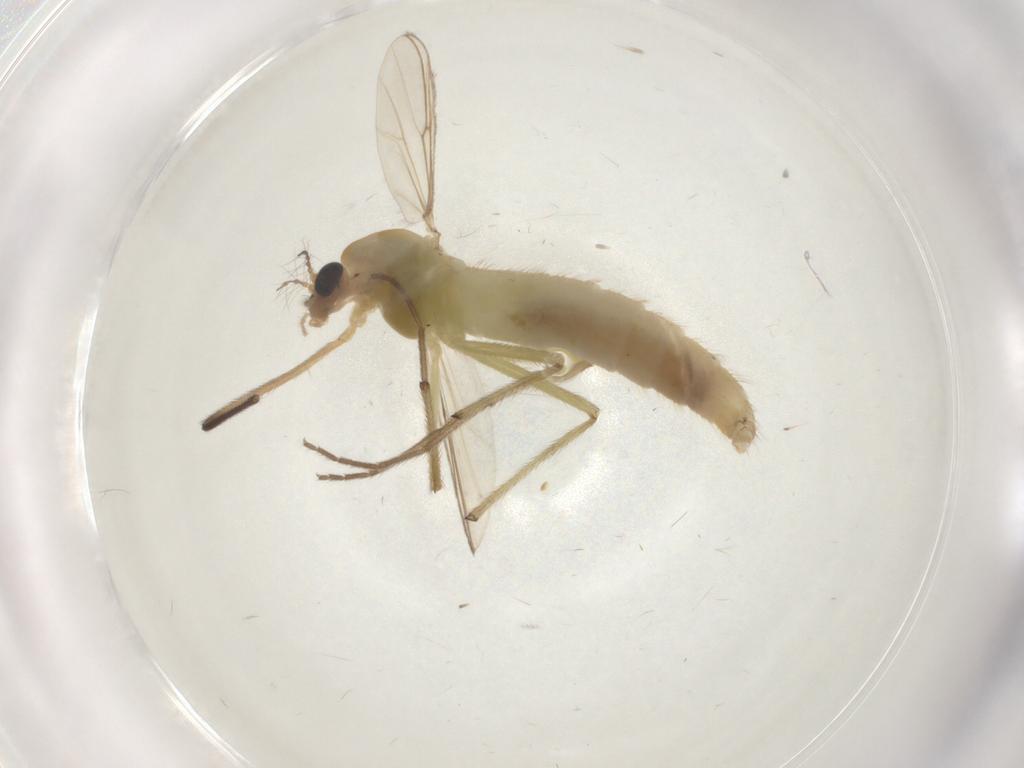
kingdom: Animalia
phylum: Arthropoda
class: Insecta
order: Diptera
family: Chironomidae
